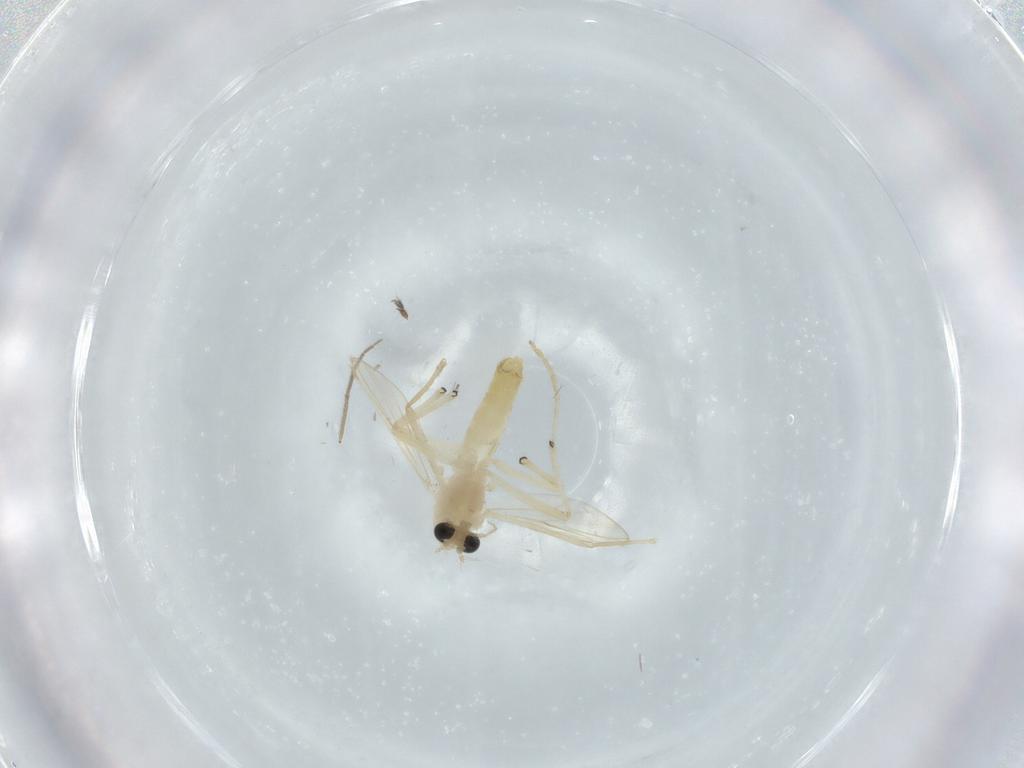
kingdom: Animalia
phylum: Arthropoda
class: Insecta
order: Diptera
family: Chironomidae
